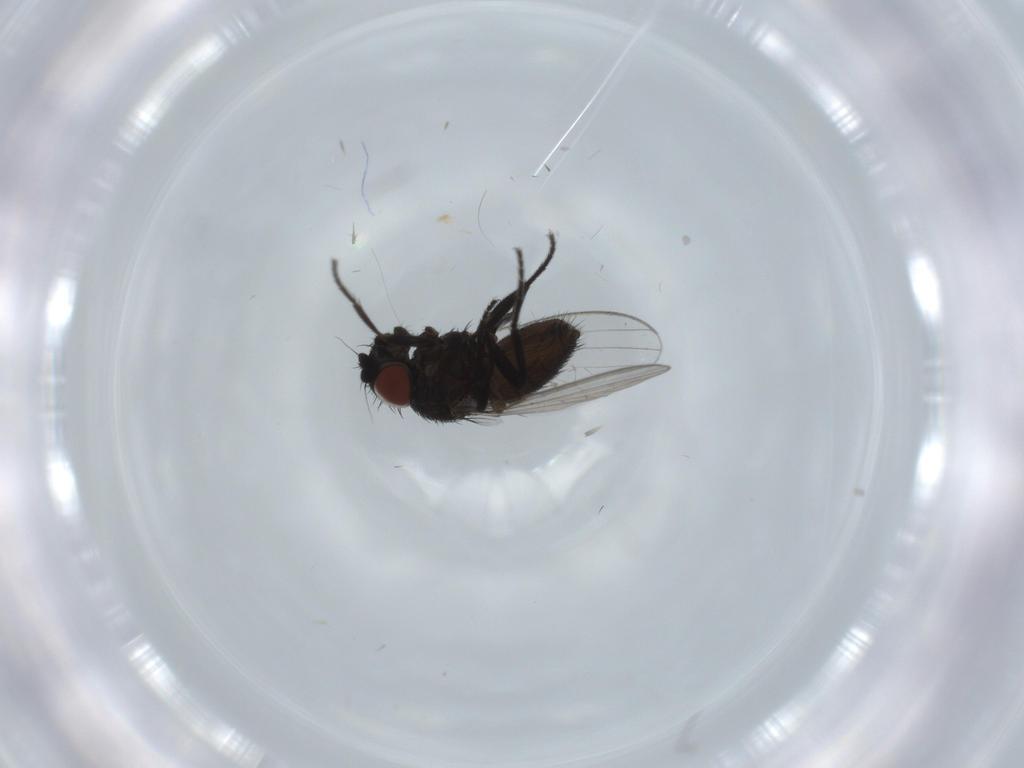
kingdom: Animalia
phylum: Arthropoda
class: Insecta
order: Diptera
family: Milichiidae
